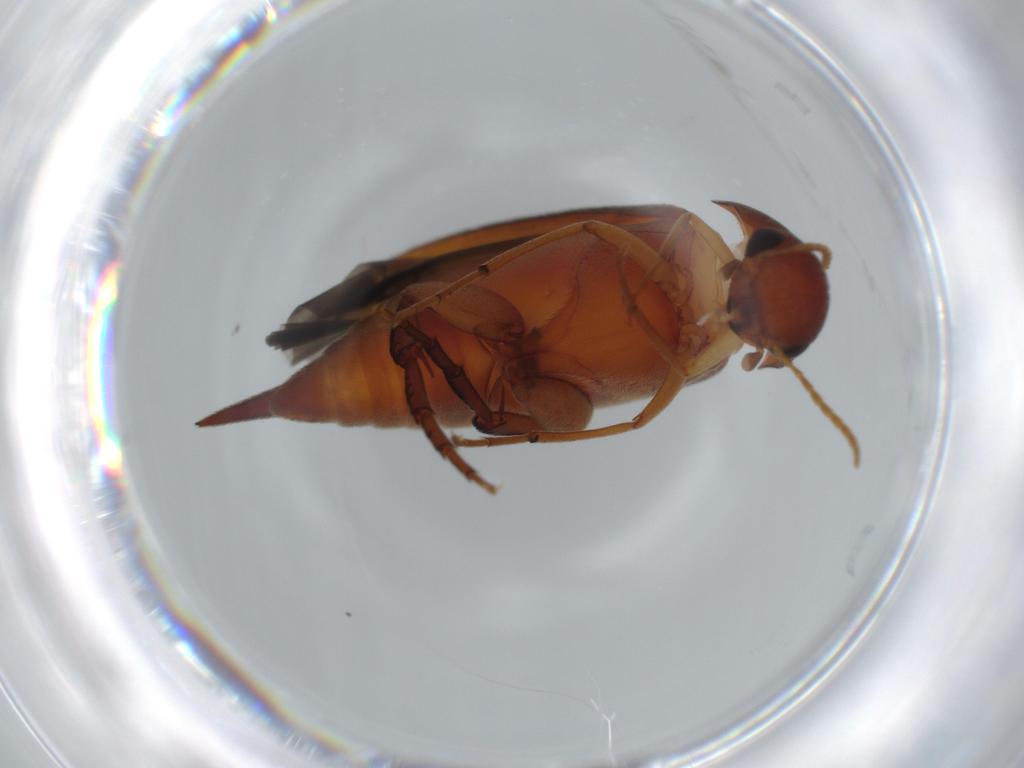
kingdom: Animalia
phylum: Arthropoda
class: Insecta
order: Coleoptera
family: Mordellidae
